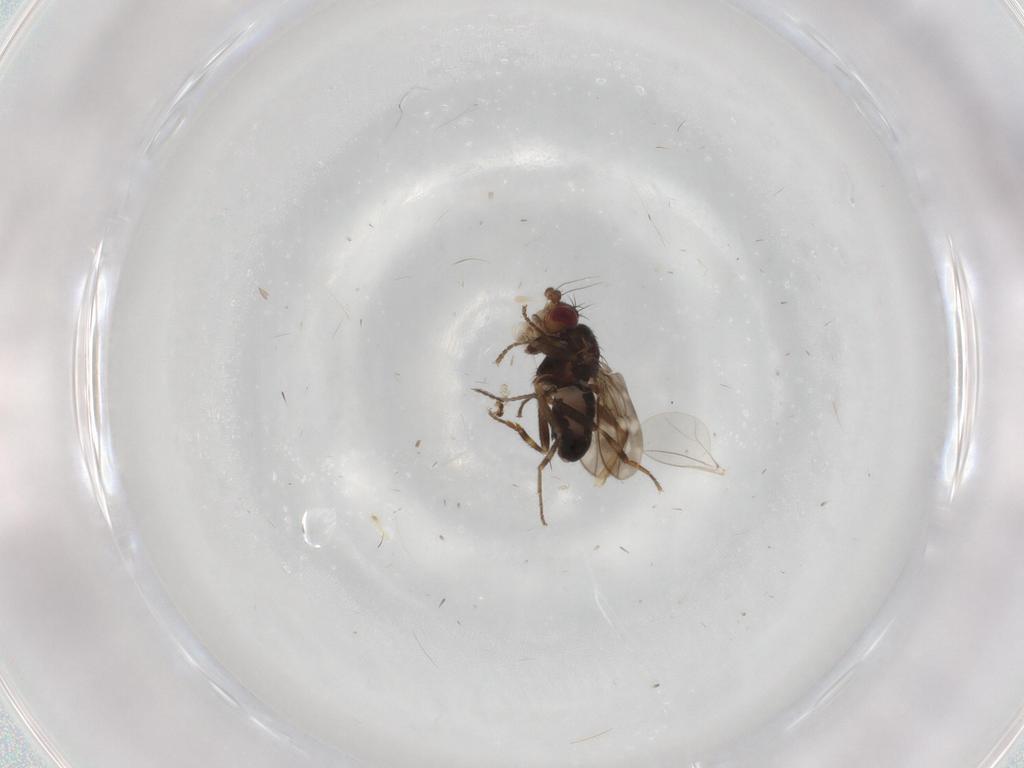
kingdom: Animalia
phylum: Arthropoda
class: Insecta
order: Diptera
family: Sphaeroceridae
